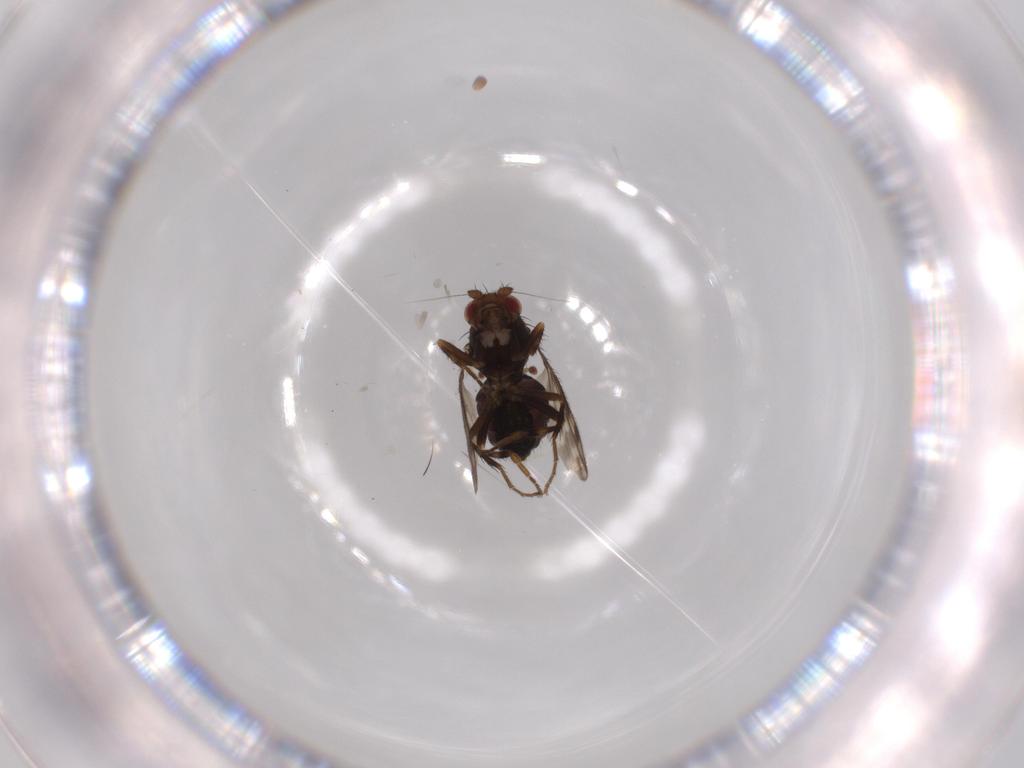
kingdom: Animalia
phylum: Arthropoda
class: Insecta
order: Diptera
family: Sphaeroceridae
